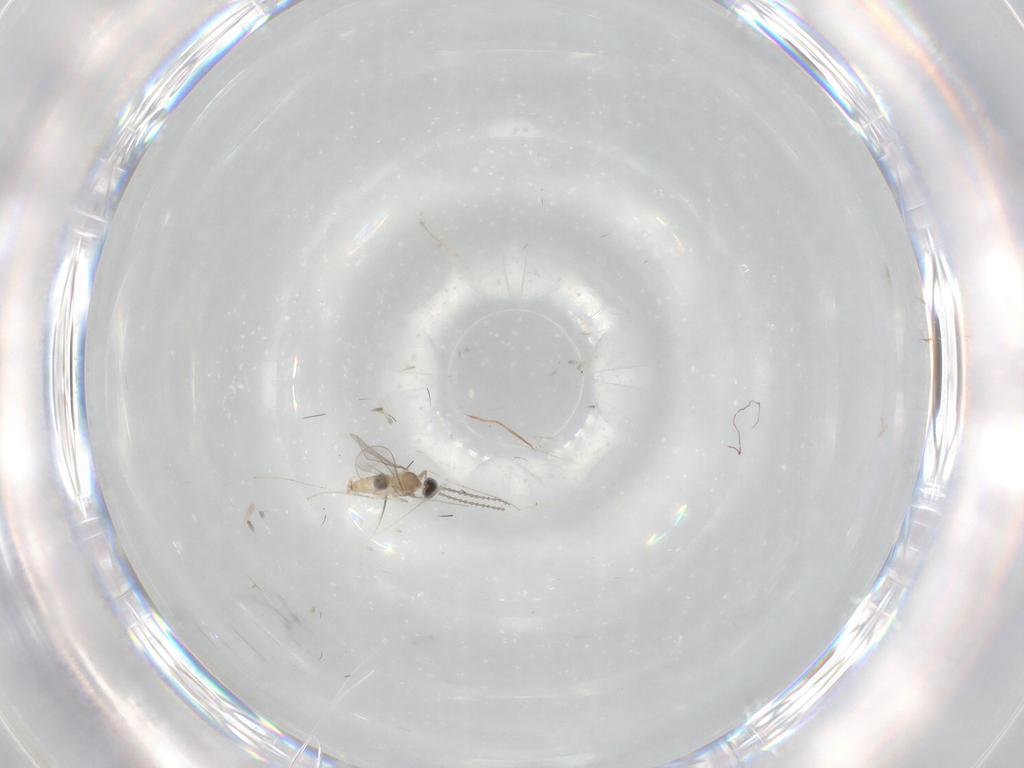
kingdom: Animalia
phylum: Arthropoda
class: Insecta
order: Diptera
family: Cecidomyiidae
